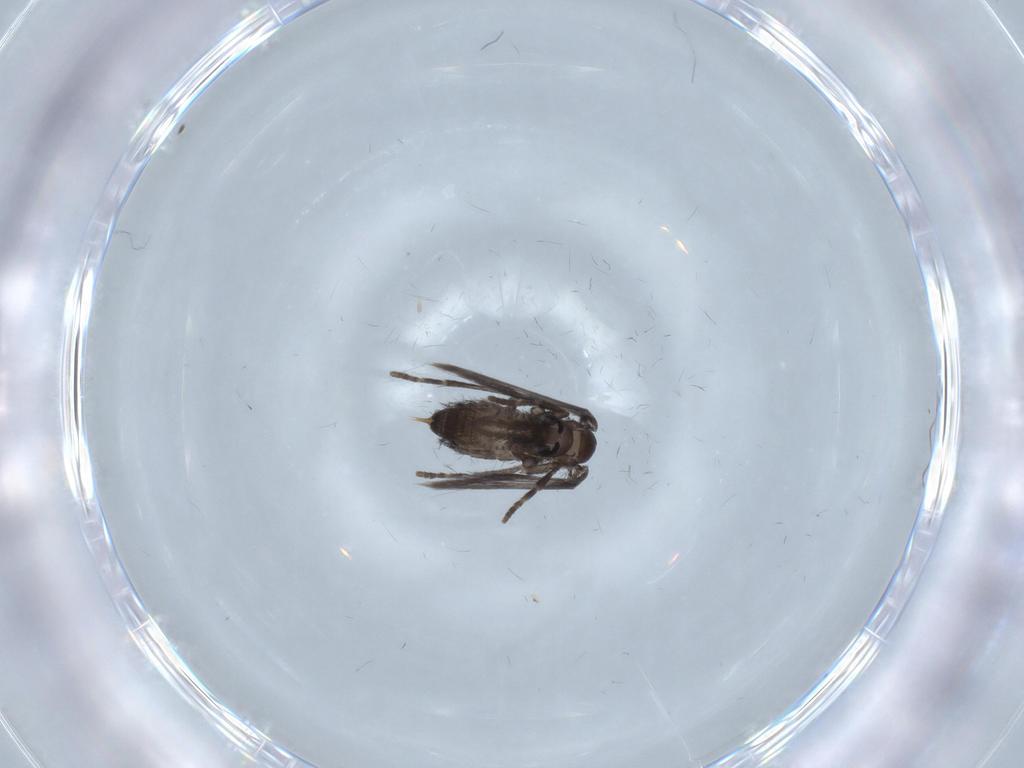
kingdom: Animalia
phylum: Arthropoda
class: Insecta
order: Diptera
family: Psychodidae
